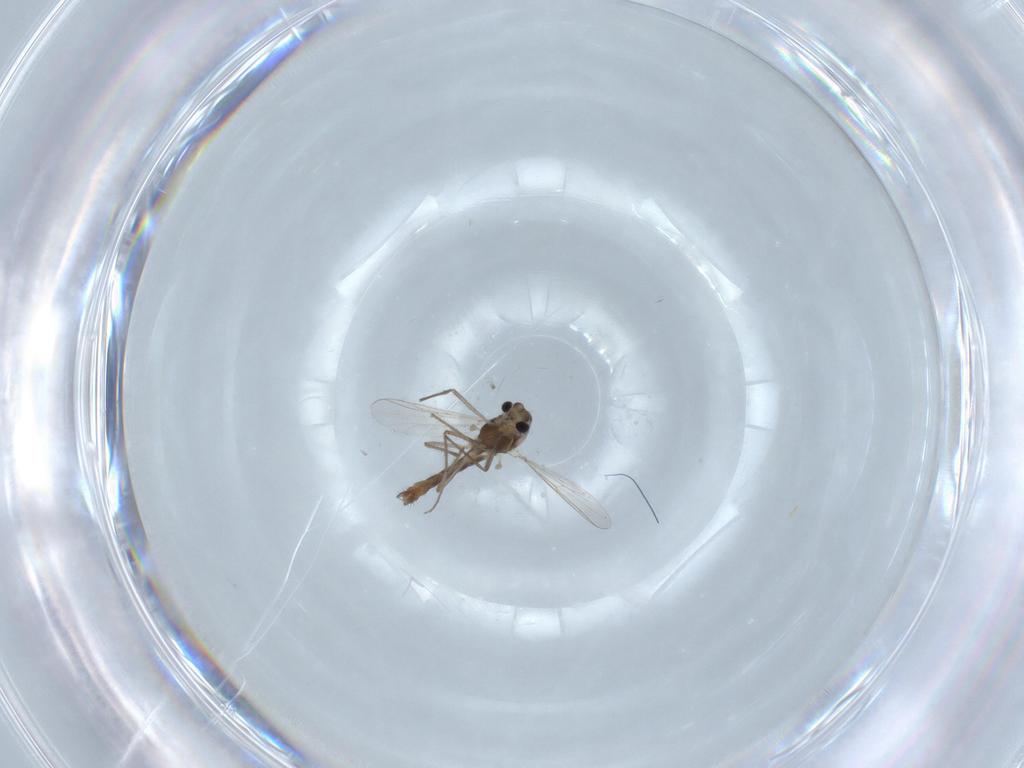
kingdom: Animalia
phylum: Arthropoda
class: Insecta
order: Diptera
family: Chironomidae
